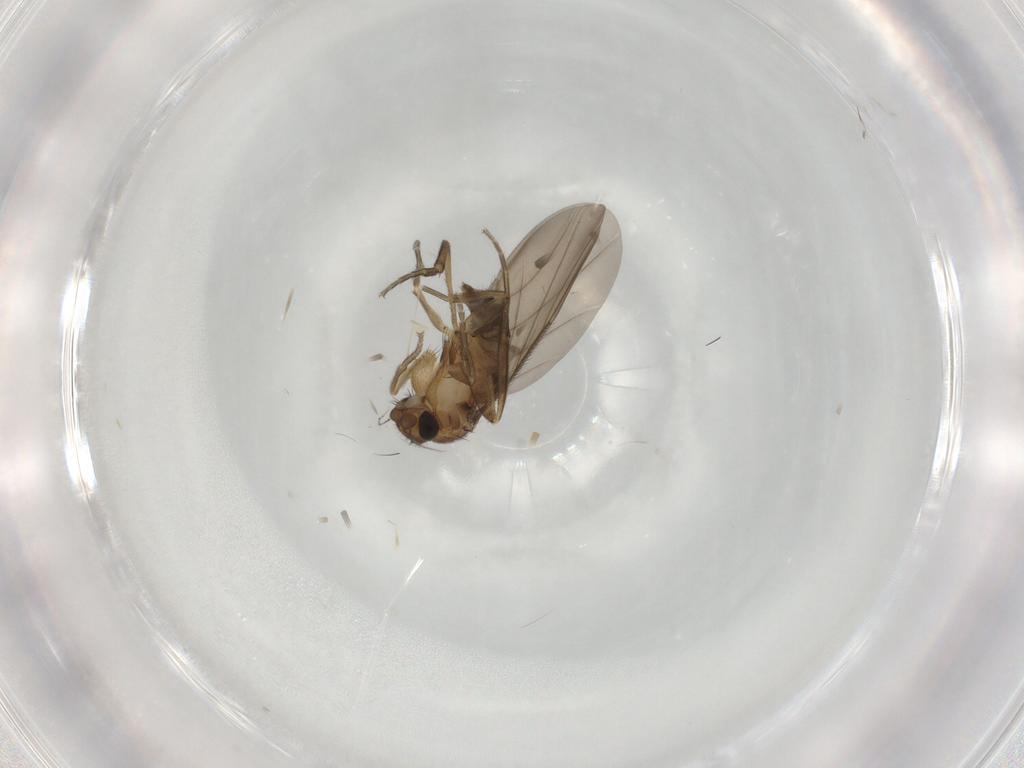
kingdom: Animalia
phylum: Arthropoda
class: Insecta
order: Diptera
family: Phoridae
